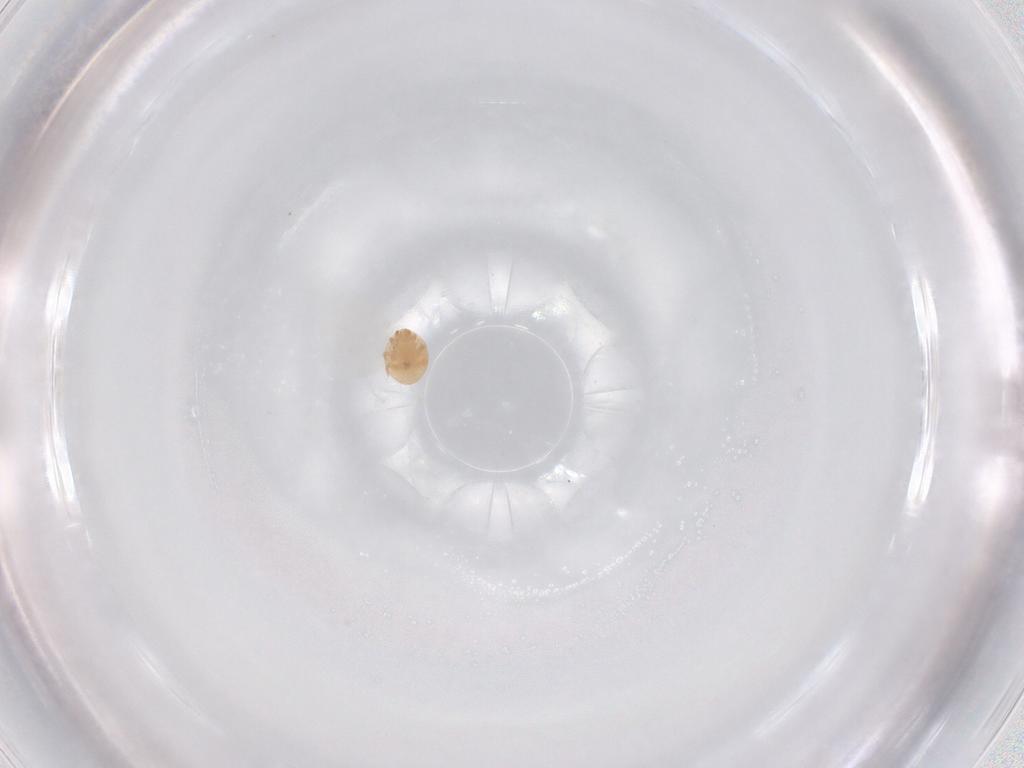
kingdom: Animalia
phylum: Arthropoda
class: Arachnida
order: Mesostigmata
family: Trematuridae
